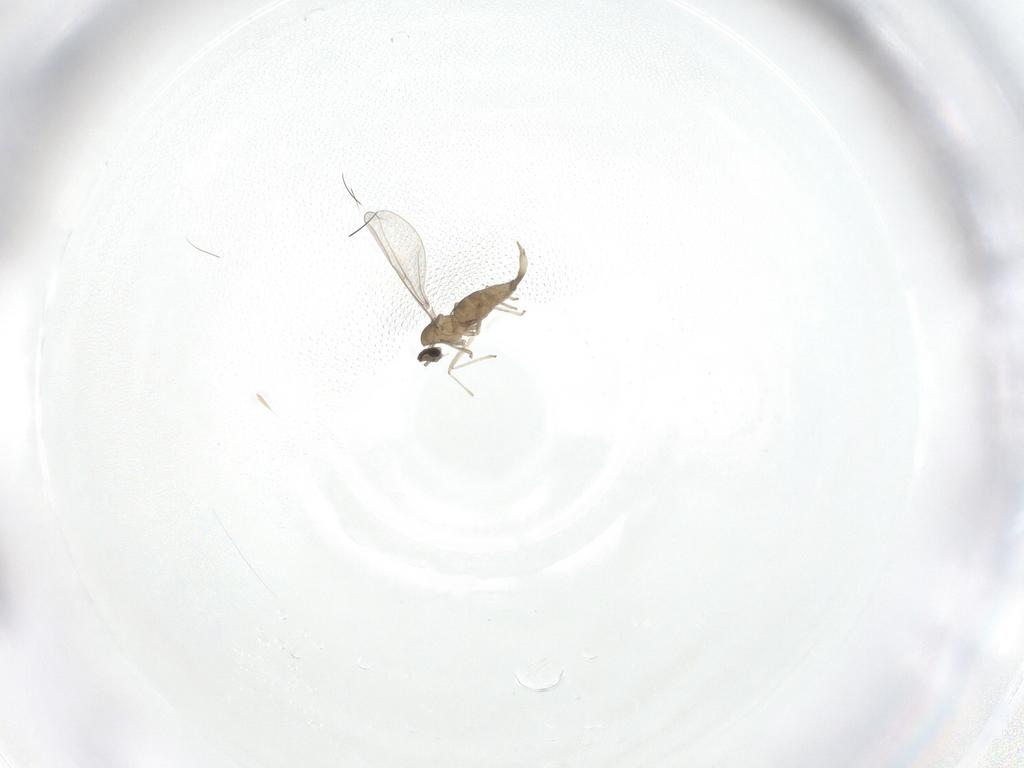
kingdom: Animalia
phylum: Arthropoda
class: Insecta
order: Diptera
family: Cecidomyiidae
